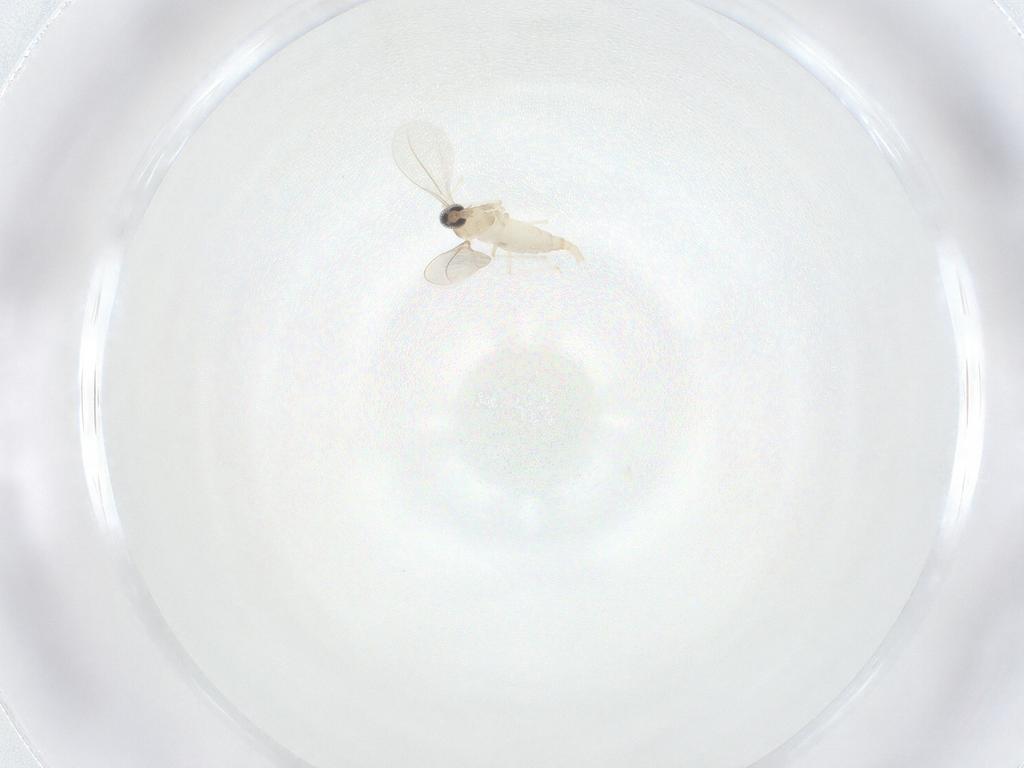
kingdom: Animalia
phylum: Arthropoda
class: Insecta
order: Diptera
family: Cecidomyiidae
